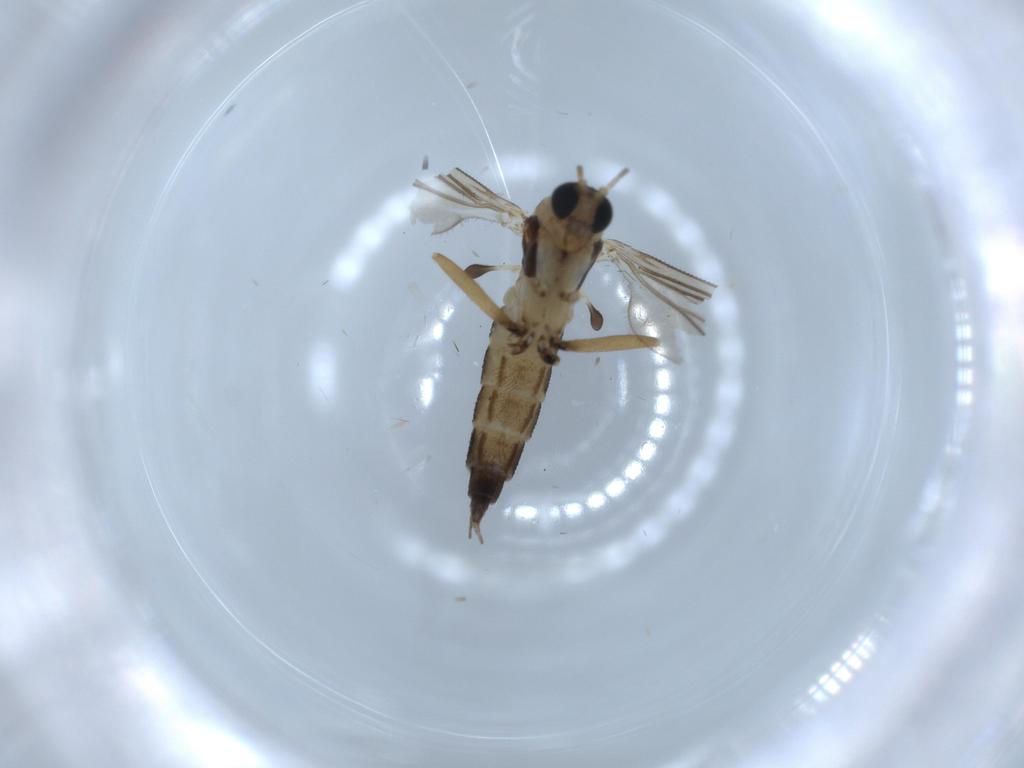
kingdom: Animalia
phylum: Arthropoda
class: Insecta
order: Diptera
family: Sciaridae
